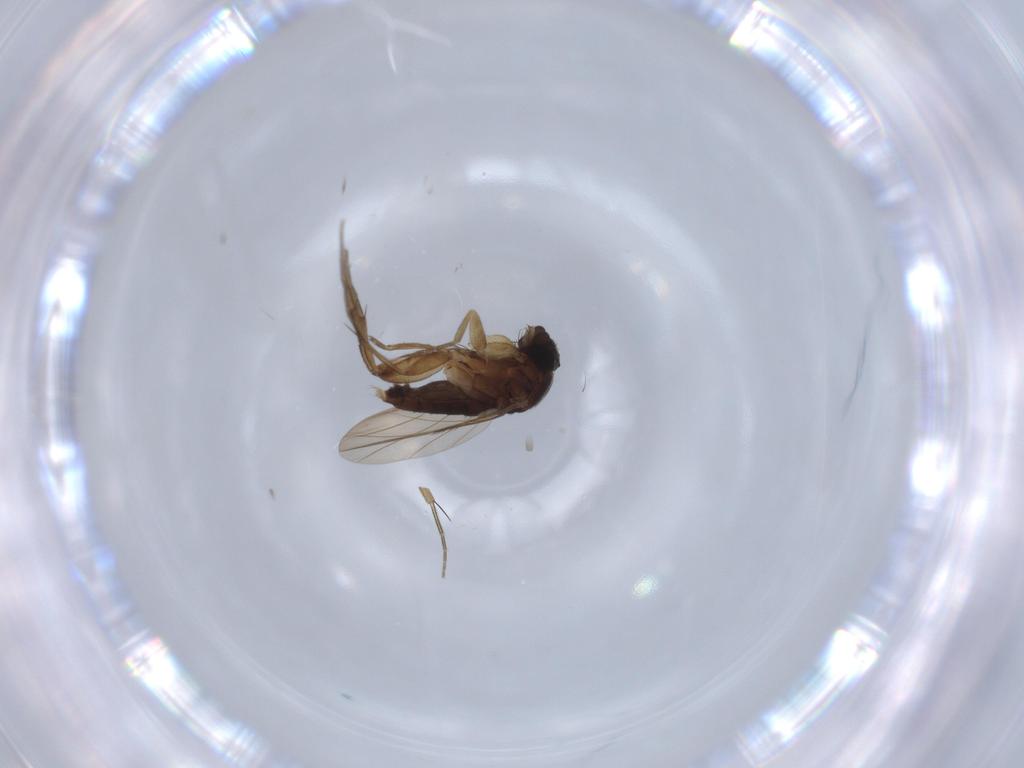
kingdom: Animalia
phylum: Arthropoda
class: Insecta
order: Diptera
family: Phoridae
